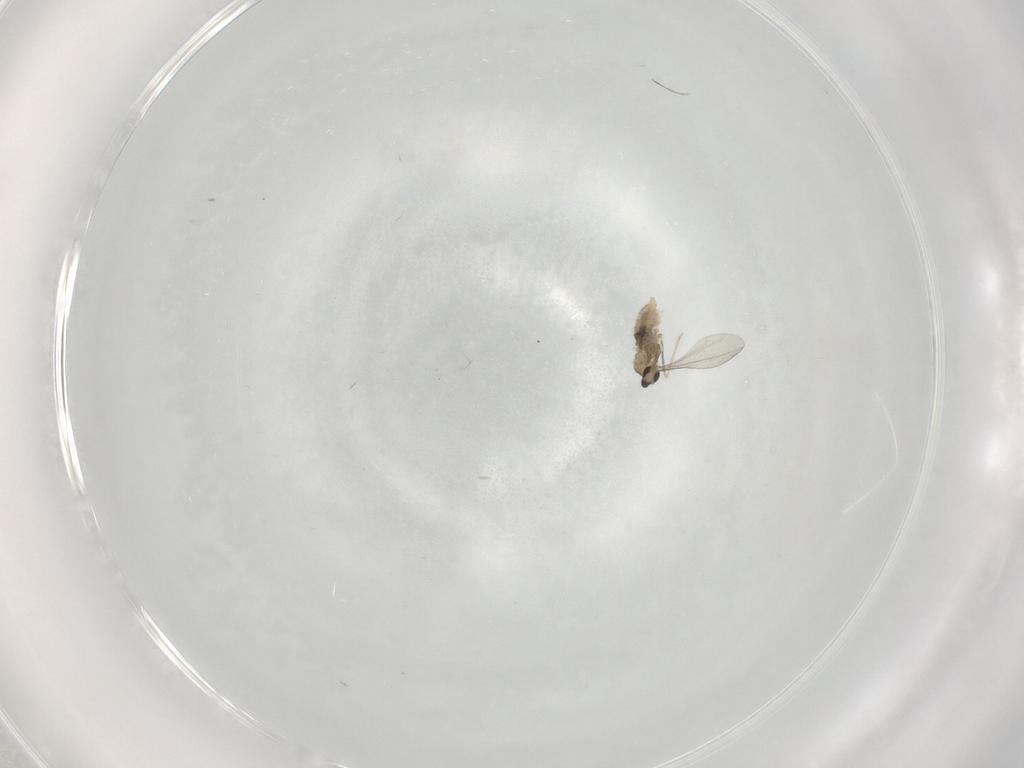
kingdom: Animalia
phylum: Arthropoda
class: Insecta
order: Diptera
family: Cecidomyiidae
